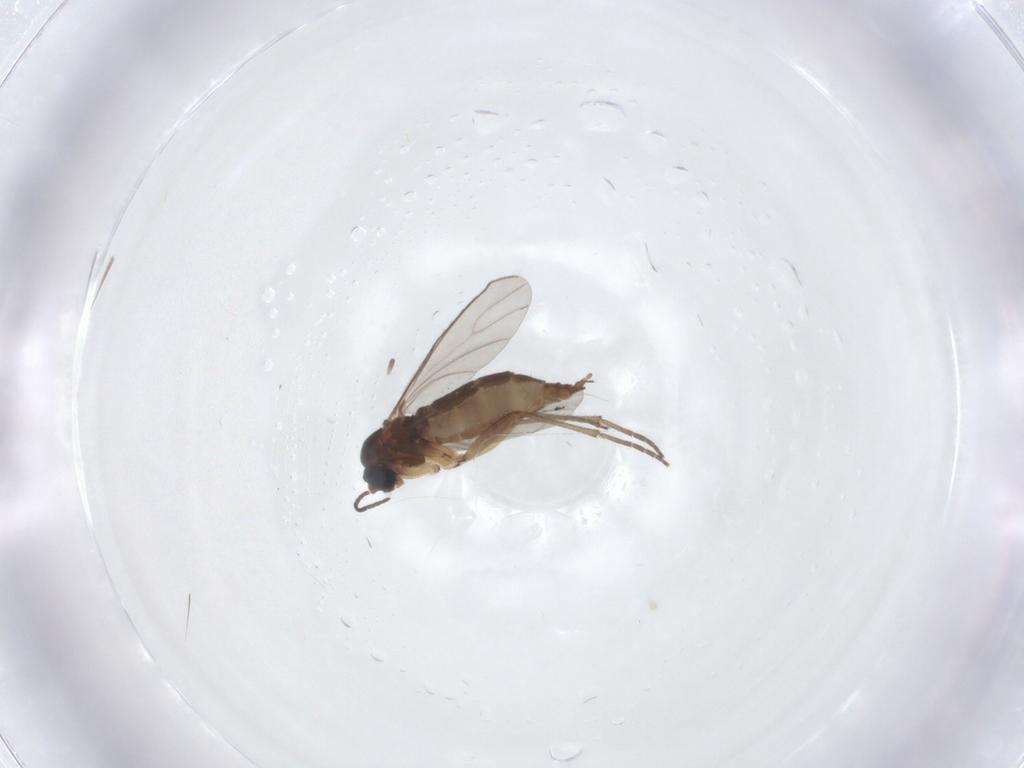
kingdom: Animalia
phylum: Arthropoda
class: Insecta
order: Diptera
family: Sciaridae
